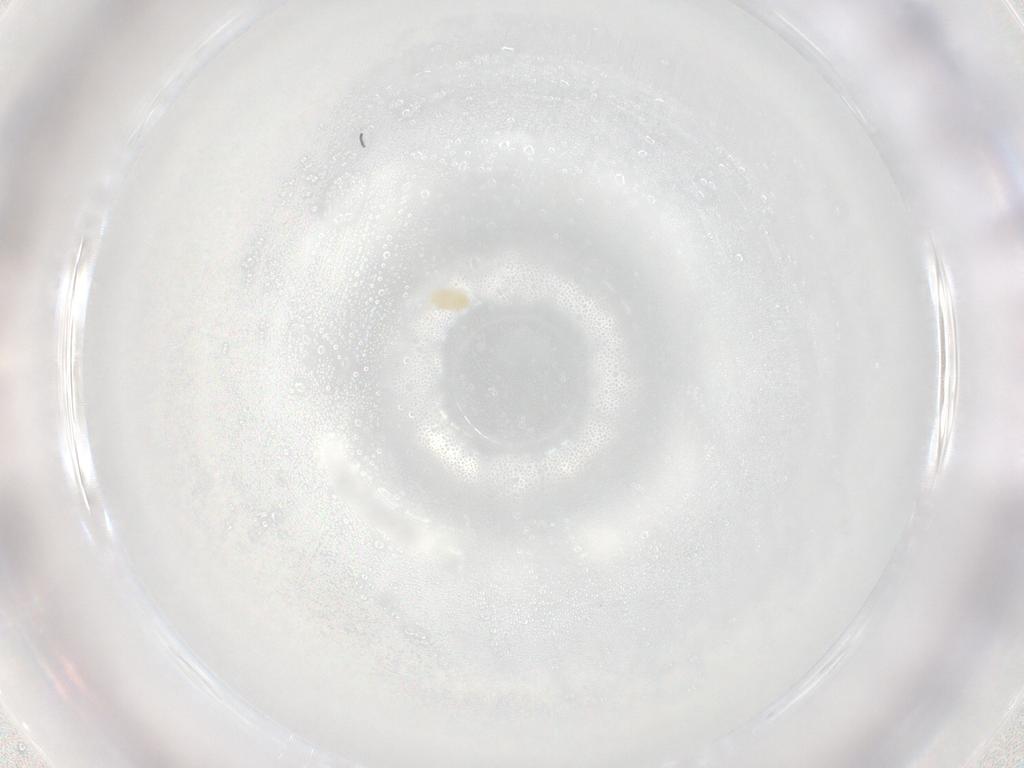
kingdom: Animalia
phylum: Arthropoda
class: Arachnida
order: Trombidiformes
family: Eupodidae
